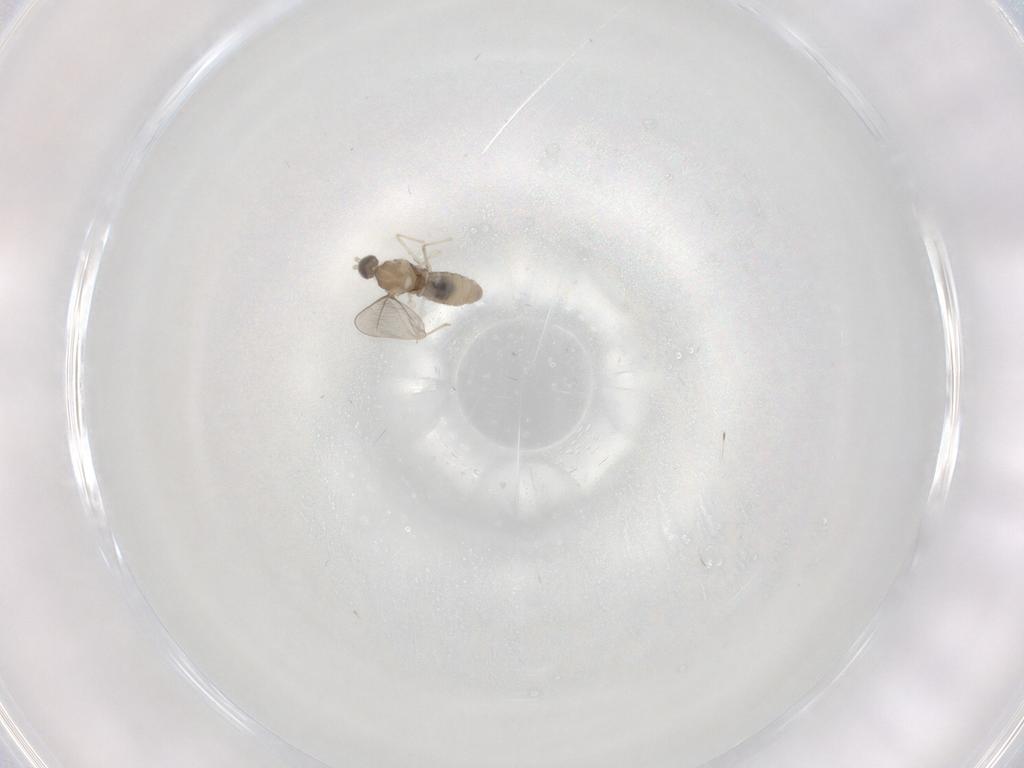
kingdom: Animalia
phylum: Arthropoda
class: Insecta
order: Diptera
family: Cecidomyiidae
